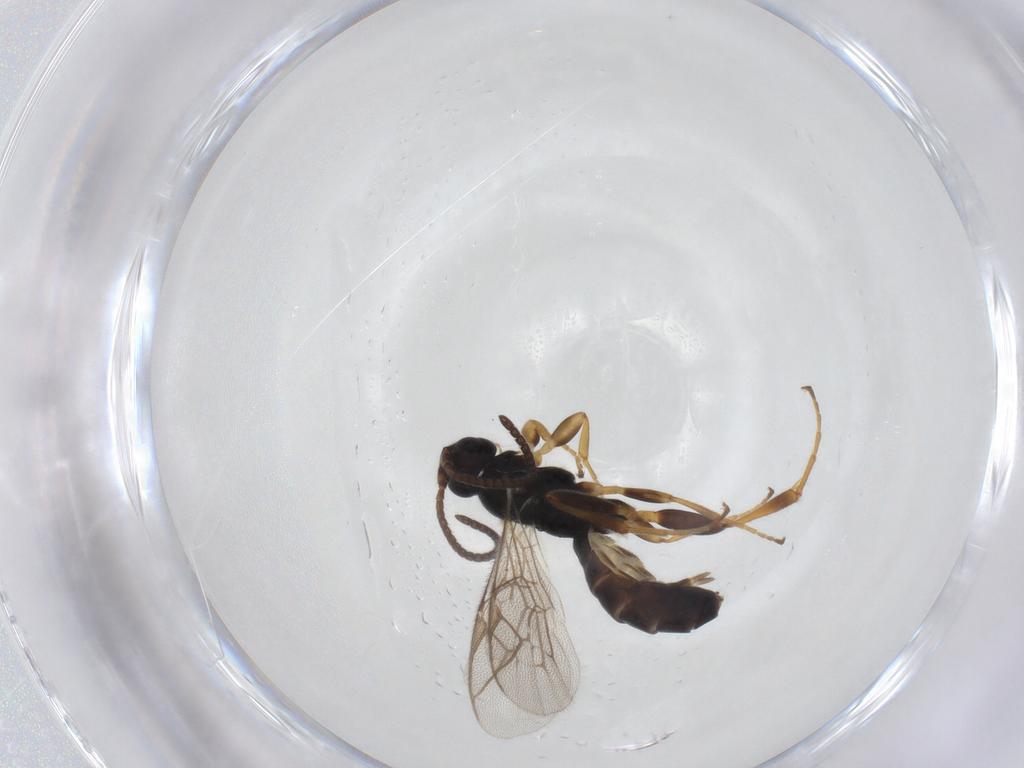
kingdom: Animalia
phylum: Arthropoda
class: Insecta
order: Hymenoptera
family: Ichneumonidae
